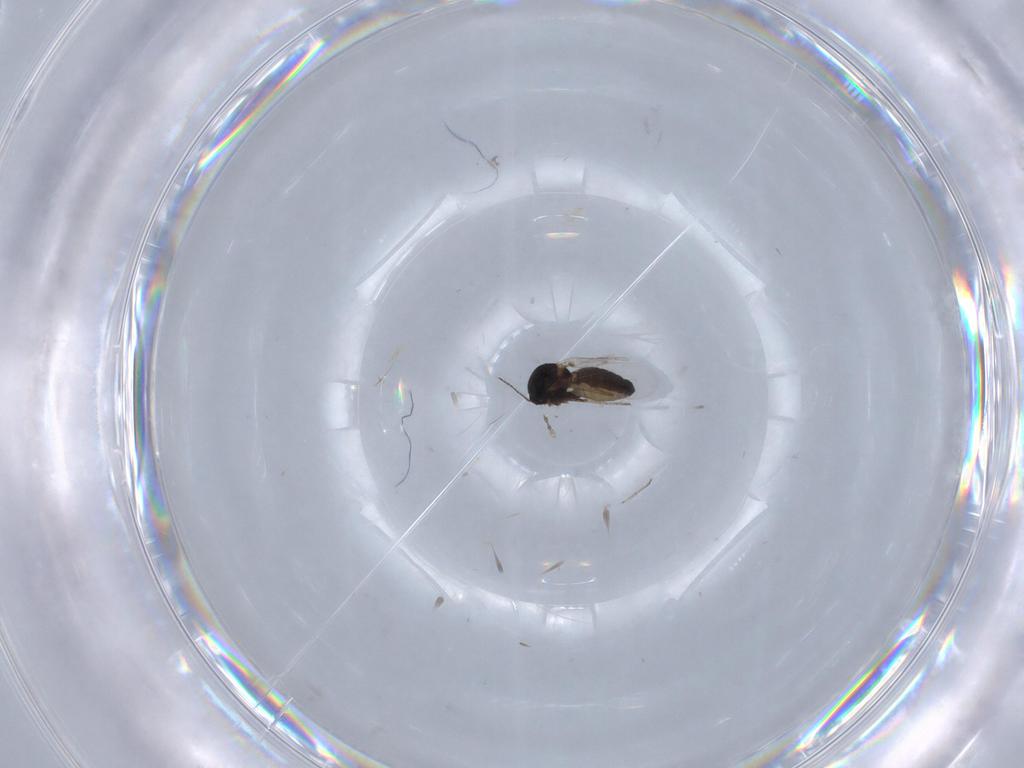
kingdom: Animalia
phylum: Arthropoda
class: Insecta
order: Diptera
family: Ceratopogonidae
